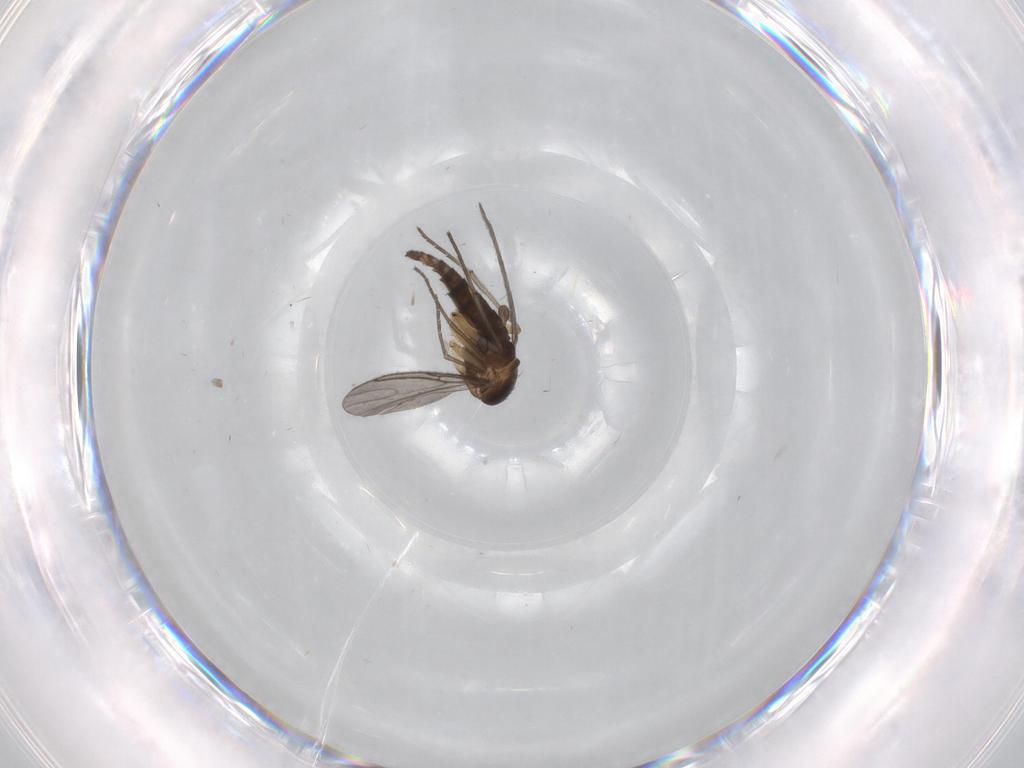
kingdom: Animalia
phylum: Arthropoda
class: Insecta
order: Diptera
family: Sciaridae
